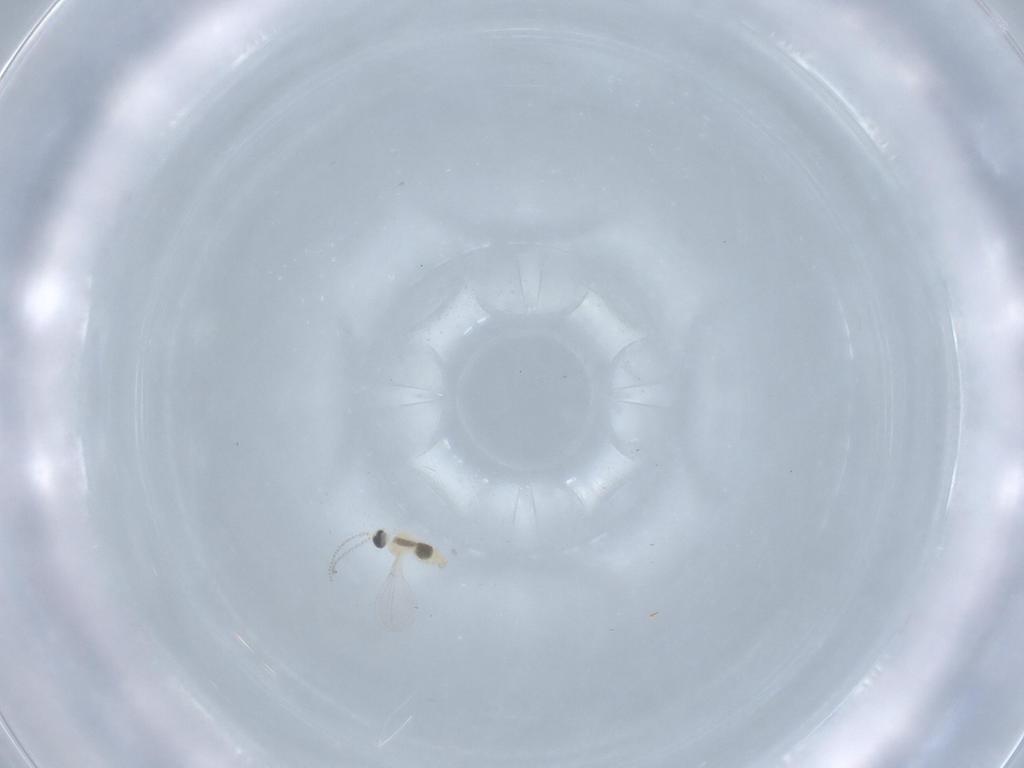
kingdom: Animalia
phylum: Arthropoda
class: Insecta
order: Diptera
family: Cecidomyiidae
